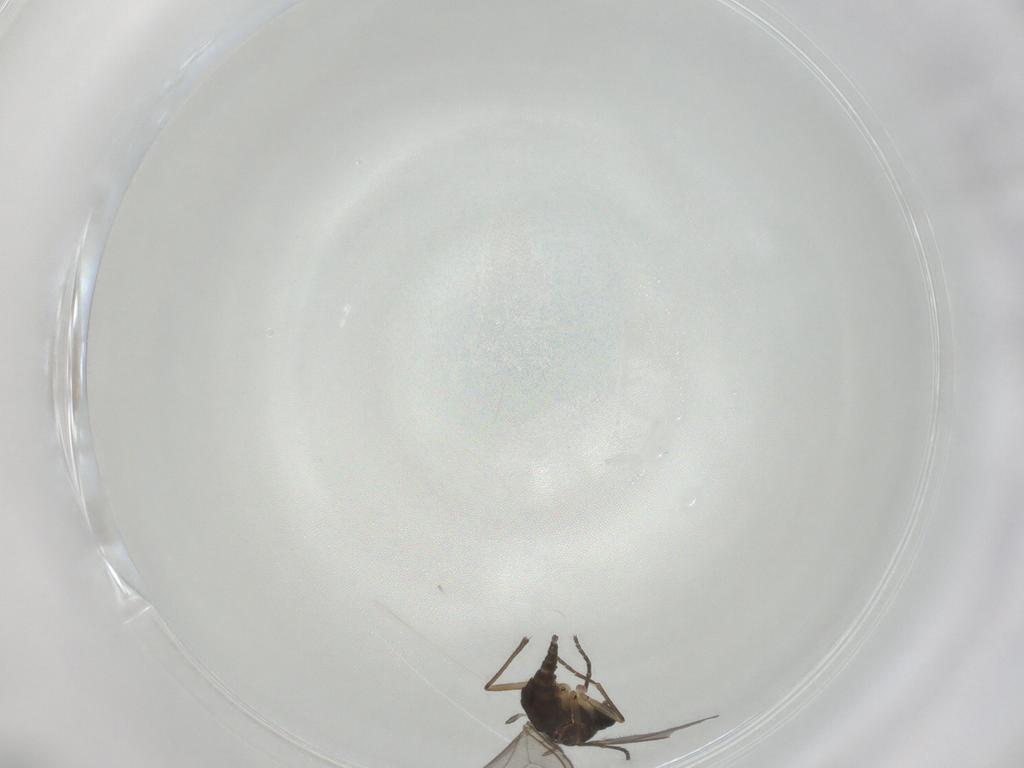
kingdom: Animalia
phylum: Arthropoda
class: Insecta
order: Diptera
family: Sciaridae
